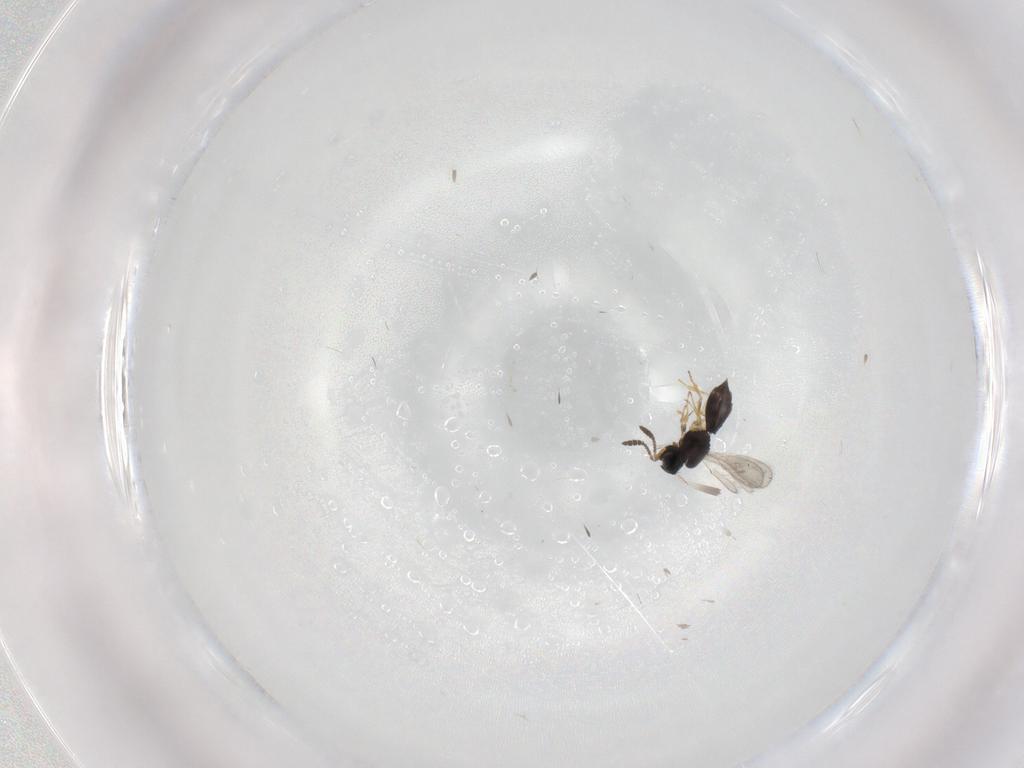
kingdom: Animalia
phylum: Arthropoda
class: Insecta
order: Hymenoptera
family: Scelionidae
